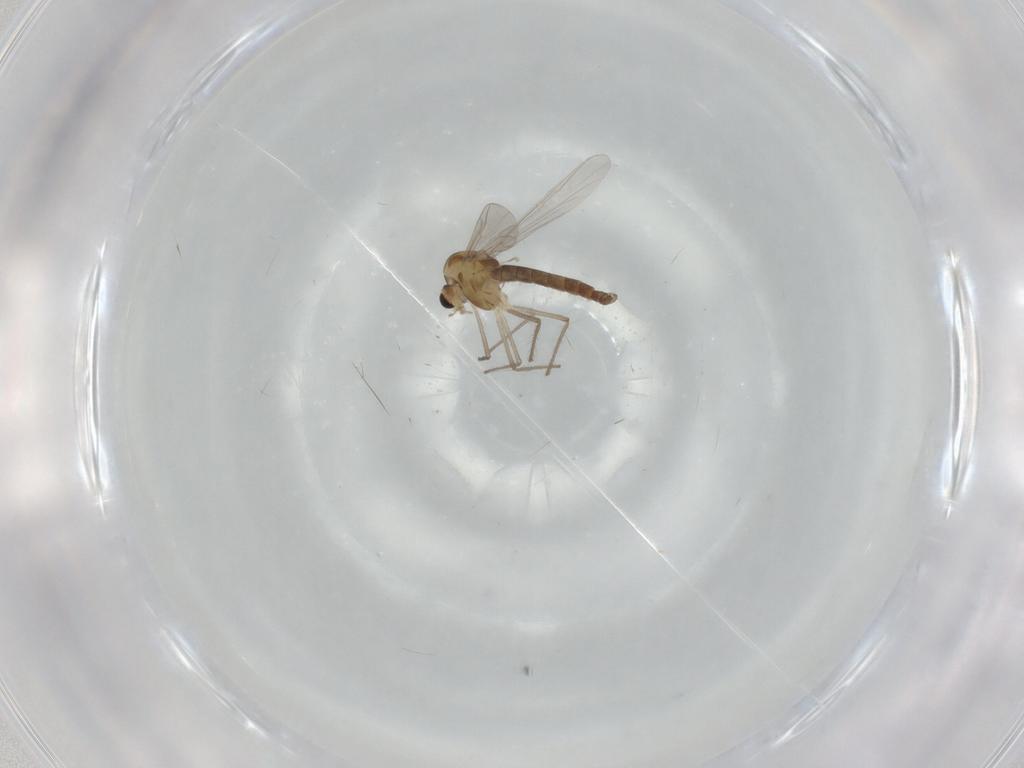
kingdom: Animalia
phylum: Arthropoda
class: Insecta
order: Diptera
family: Chironomidae
